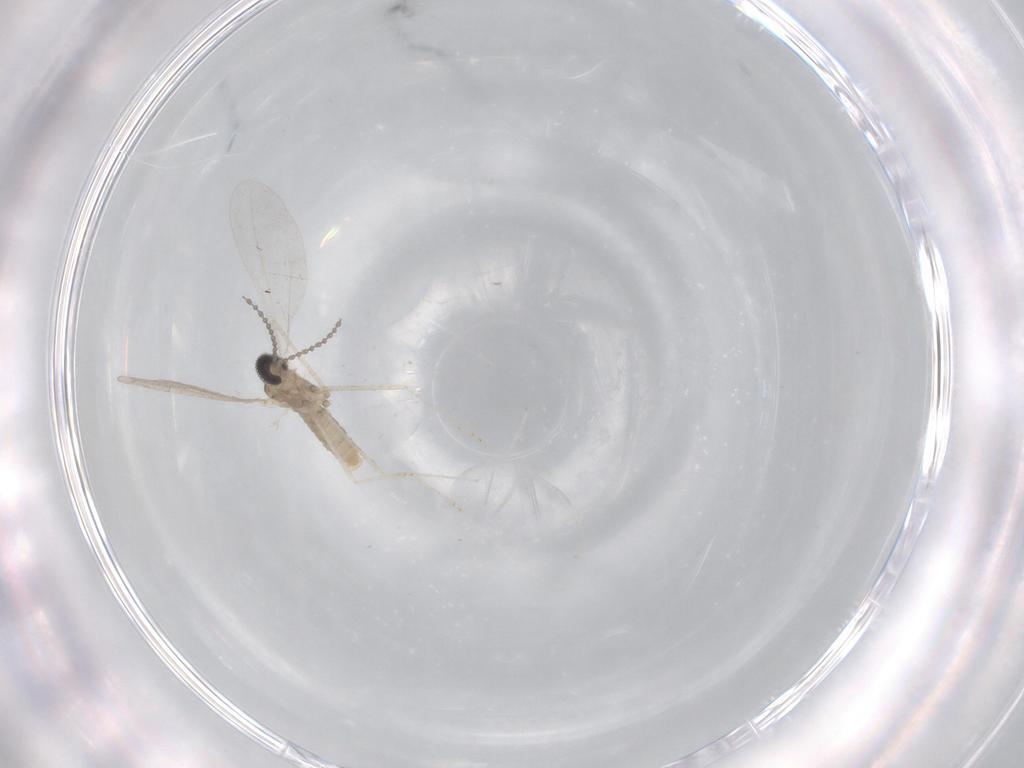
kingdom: Animalia
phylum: Arthropoda
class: Insecta
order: Diptera
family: Cecidomyiidae
